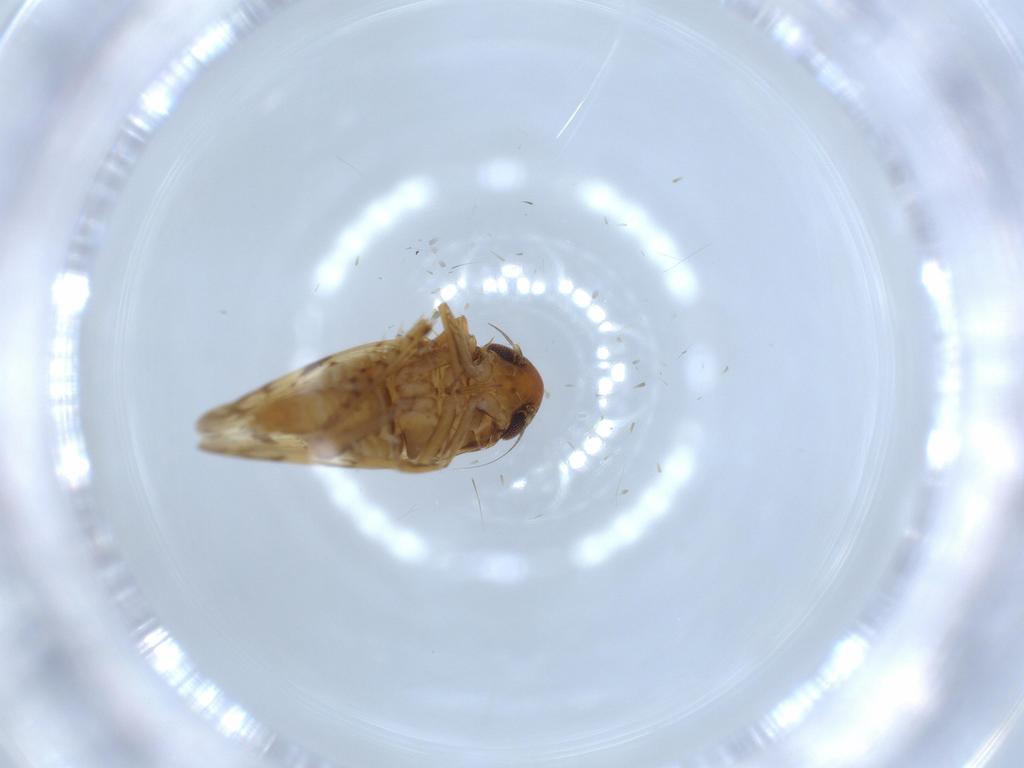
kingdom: Animalia
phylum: Arthropoda
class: Insecta
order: Hemiptera
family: Cicadellidae
